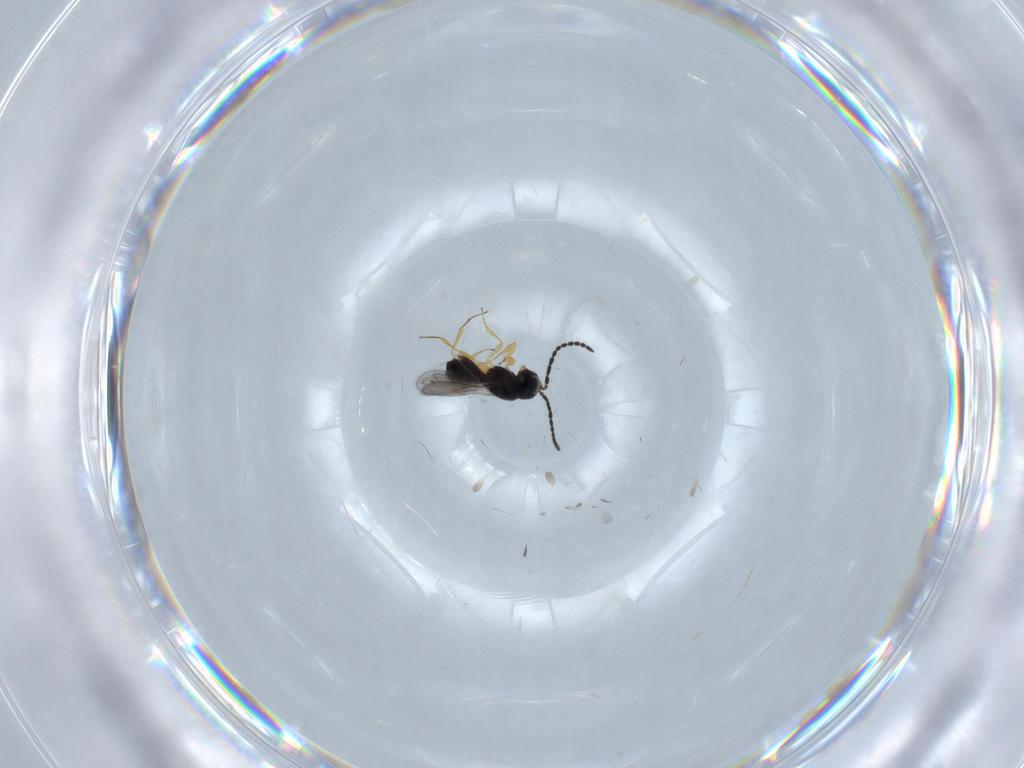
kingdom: Animalia
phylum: Arthropoda
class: Insecta
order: Hymenoptera
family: Scelionidae
